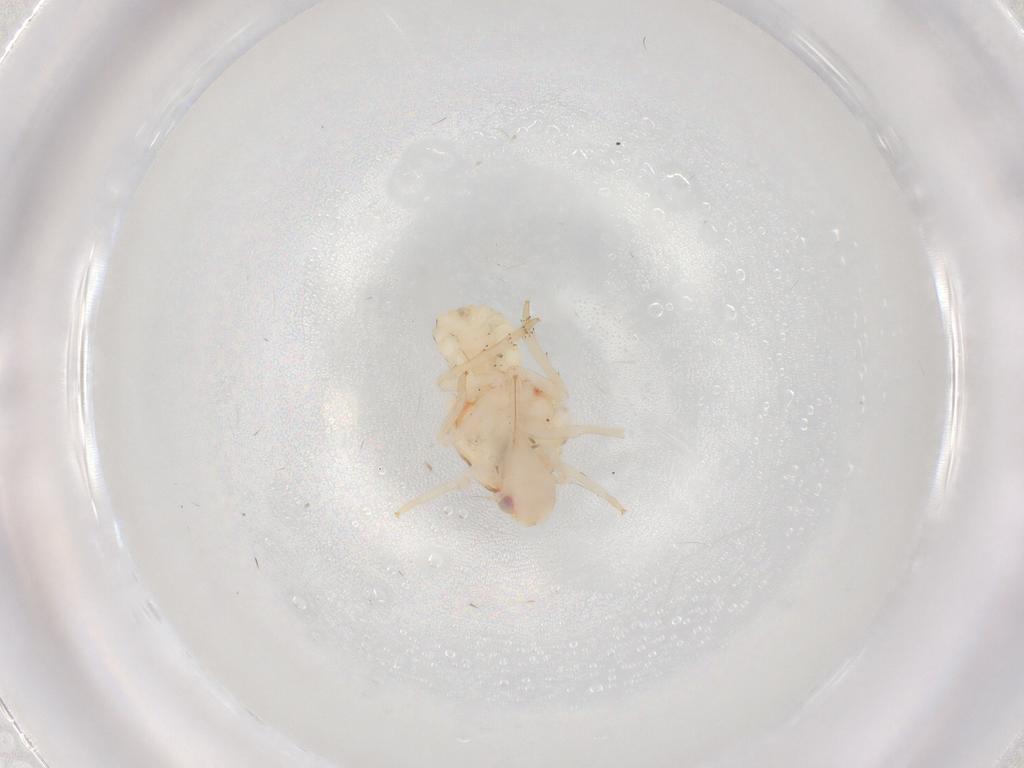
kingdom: Animalia
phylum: Arthropoda
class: Insecta
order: Hemiptera
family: Flatidae
